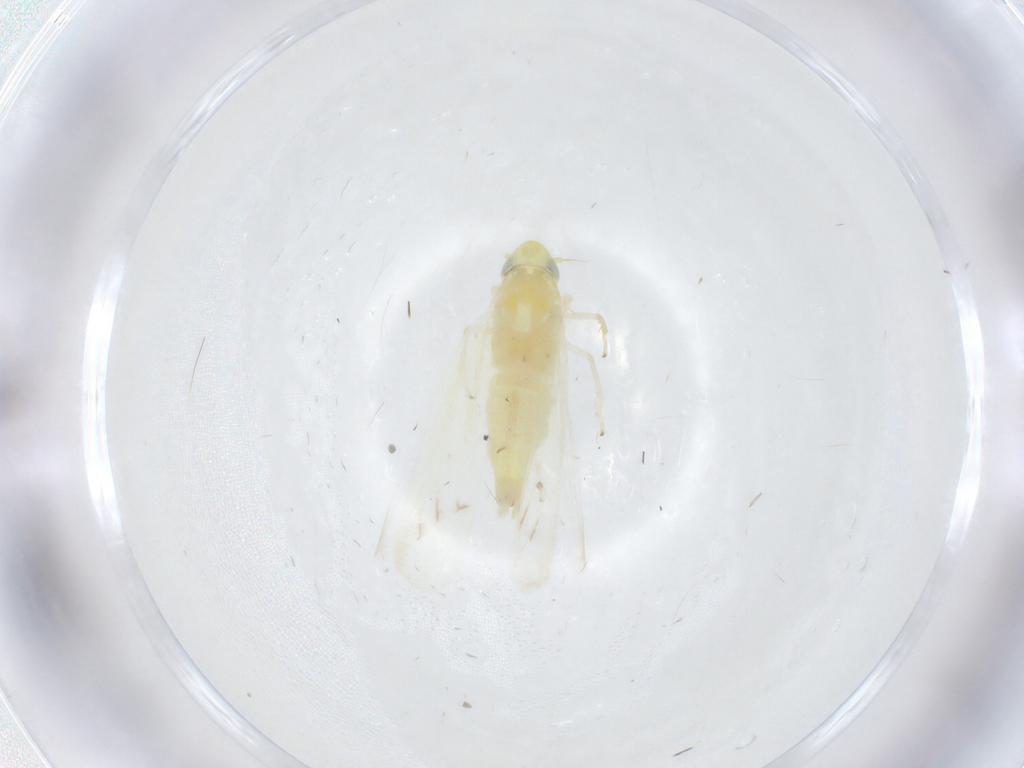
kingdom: Animalia
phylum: Arthropoda
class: Insecta
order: Hemiptera
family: Cicadellidae
